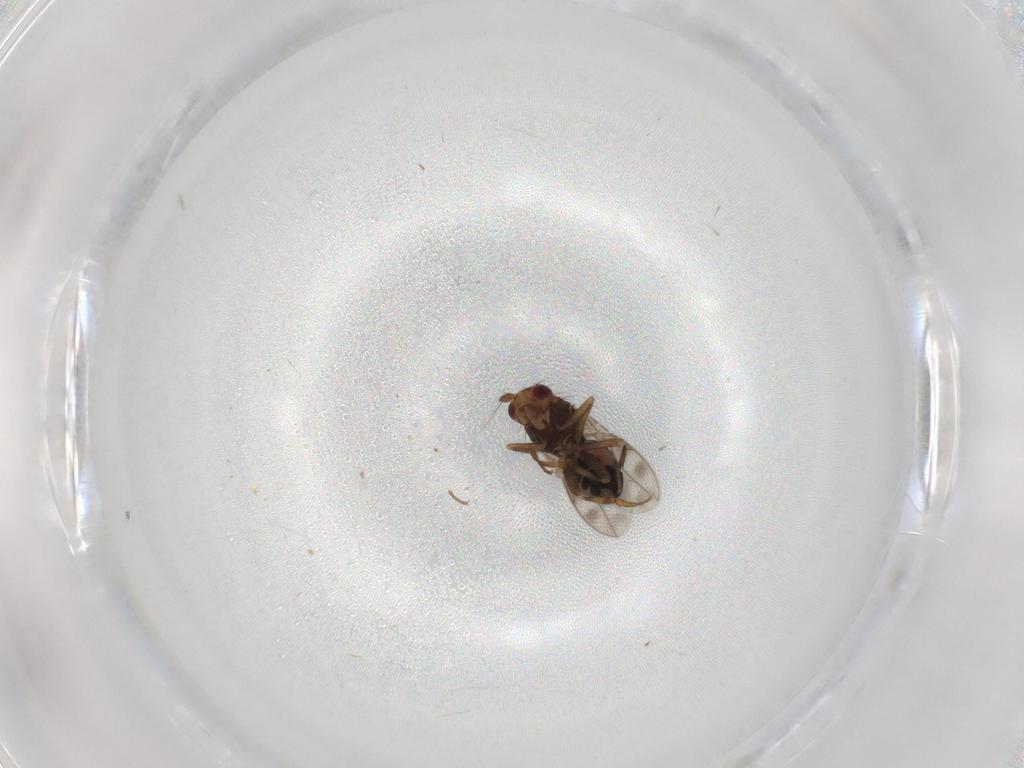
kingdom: Animalia
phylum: Arthropoda
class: Insecta
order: Diptera
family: Sphaeroceridae
